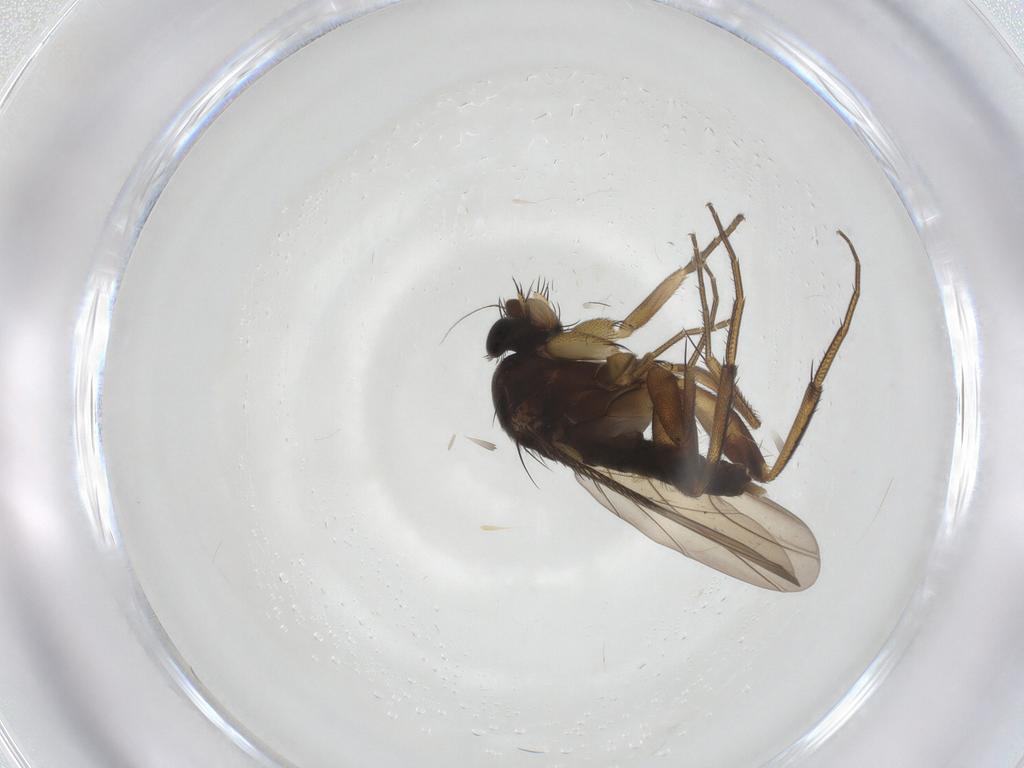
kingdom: Animalia
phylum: Arthropoda
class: Insecta
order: Diptera
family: Phoridae
